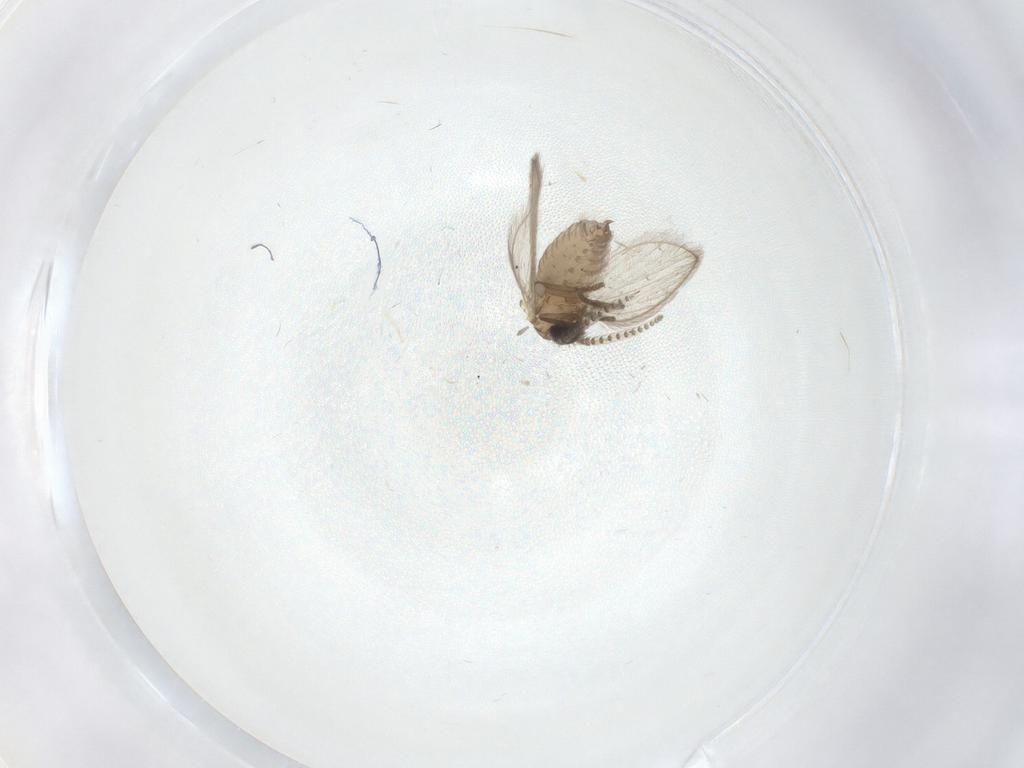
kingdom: Animalia
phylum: Arthropoda
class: Insecta
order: Diptera
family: Psychodidae
